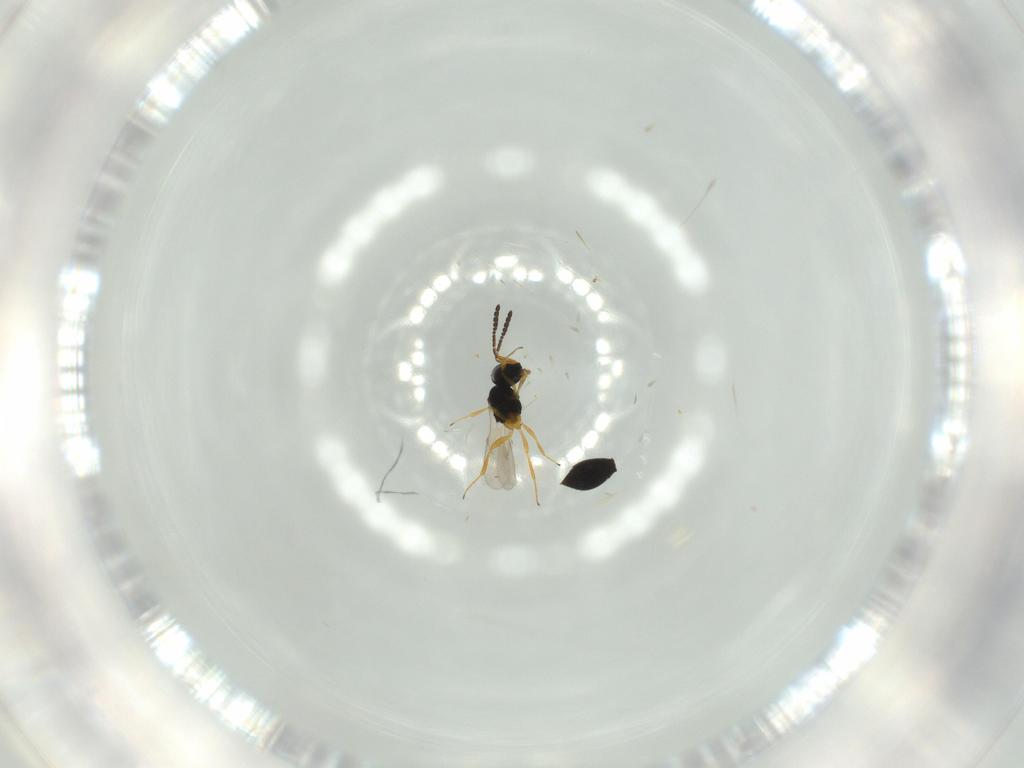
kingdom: Animalia
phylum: Arthropoda
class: Insecta
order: Hymenoptera
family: Scelionidae
